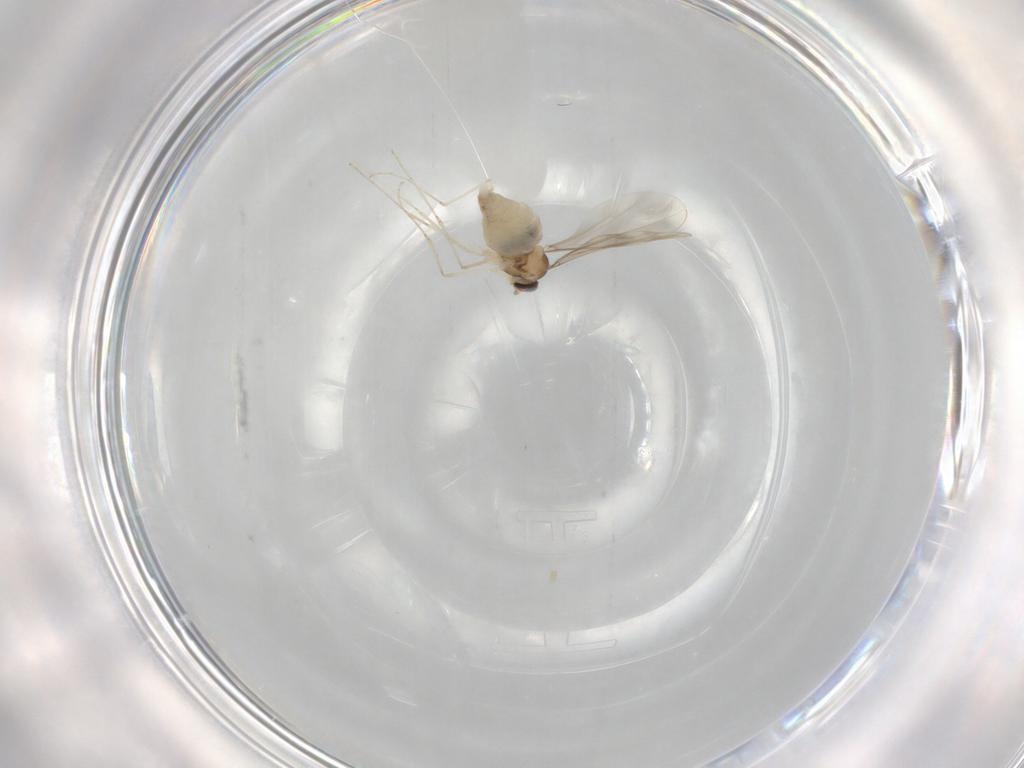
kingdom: Animalia
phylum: Arthropoda
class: Insecta
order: Diptera
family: Cecidomyiidae
